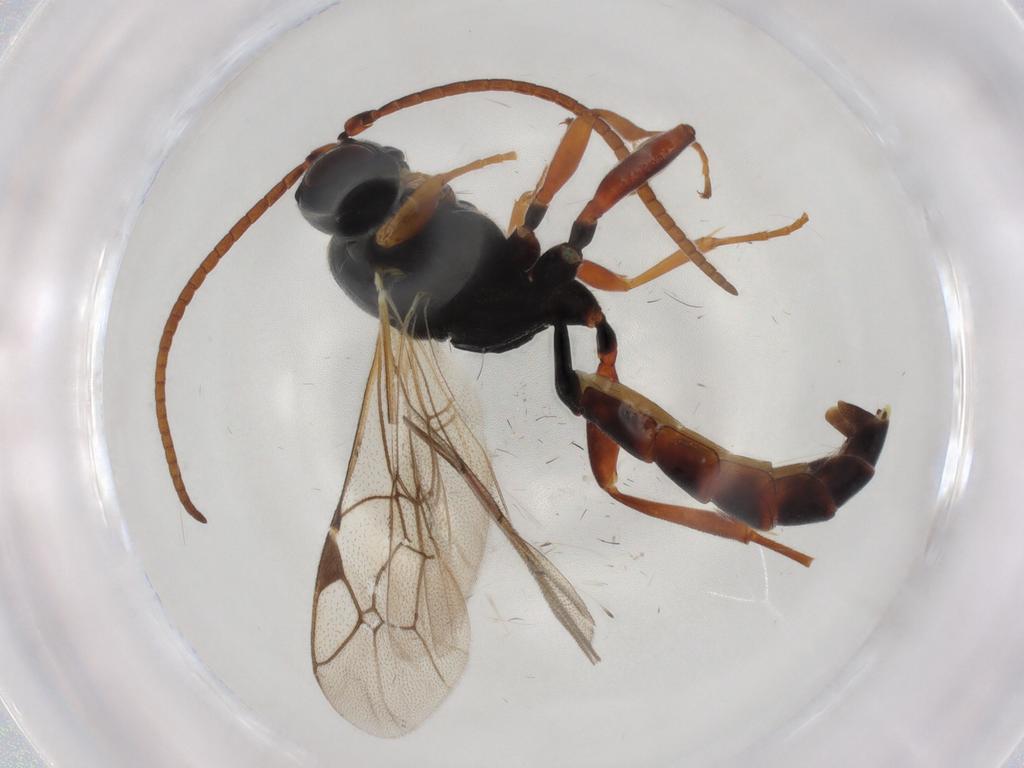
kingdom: Animalia
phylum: Arthropoda
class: Insecta
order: Hymenoptera
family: Ichneumonidae
